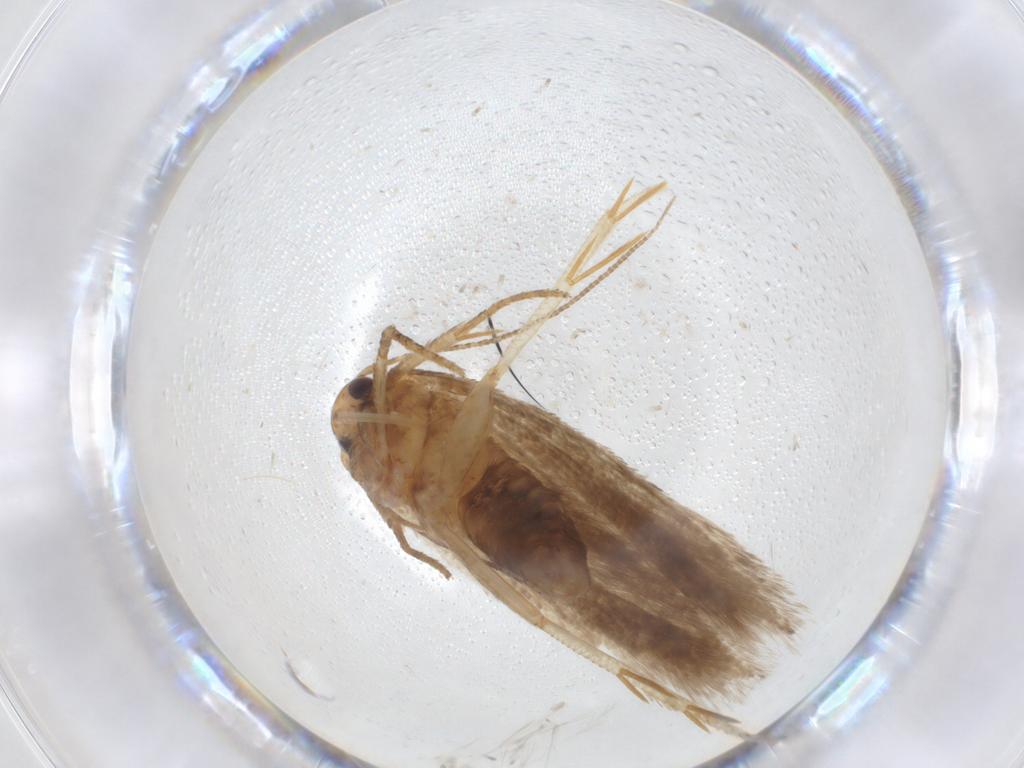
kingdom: Animalia
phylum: Arthropoda
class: Insecta
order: Lepidoptera
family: Gelechiidae
